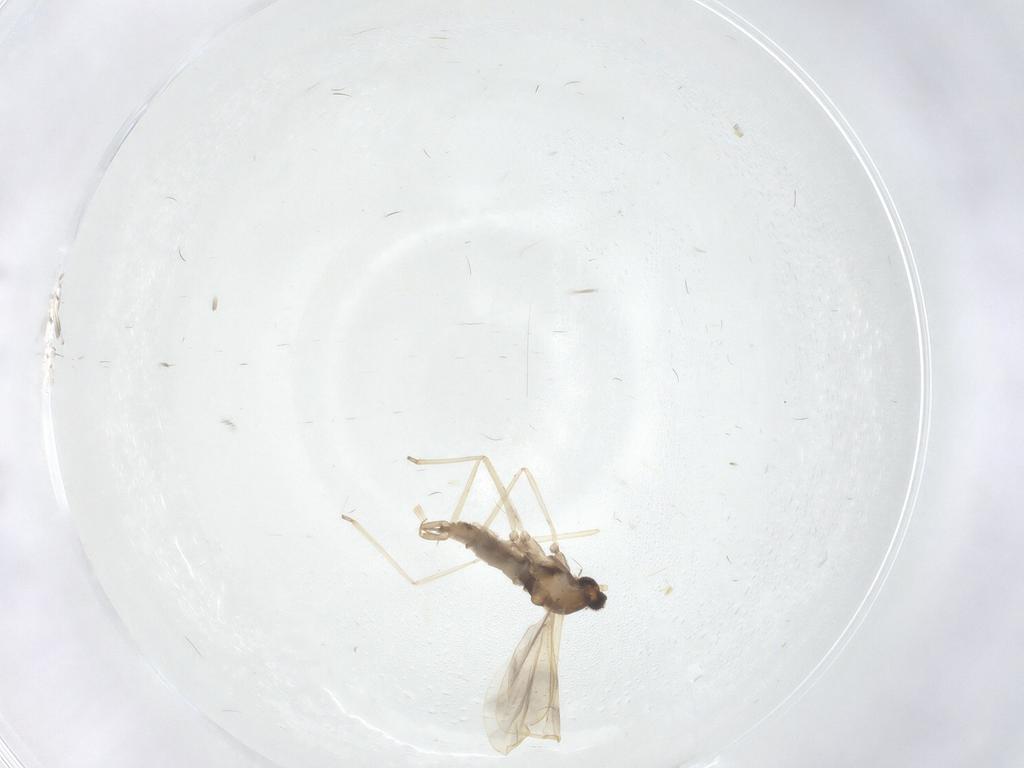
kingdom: Animalia
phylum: Arthropoda
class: Insecta
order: Diptera
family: Cecidomyiidae
